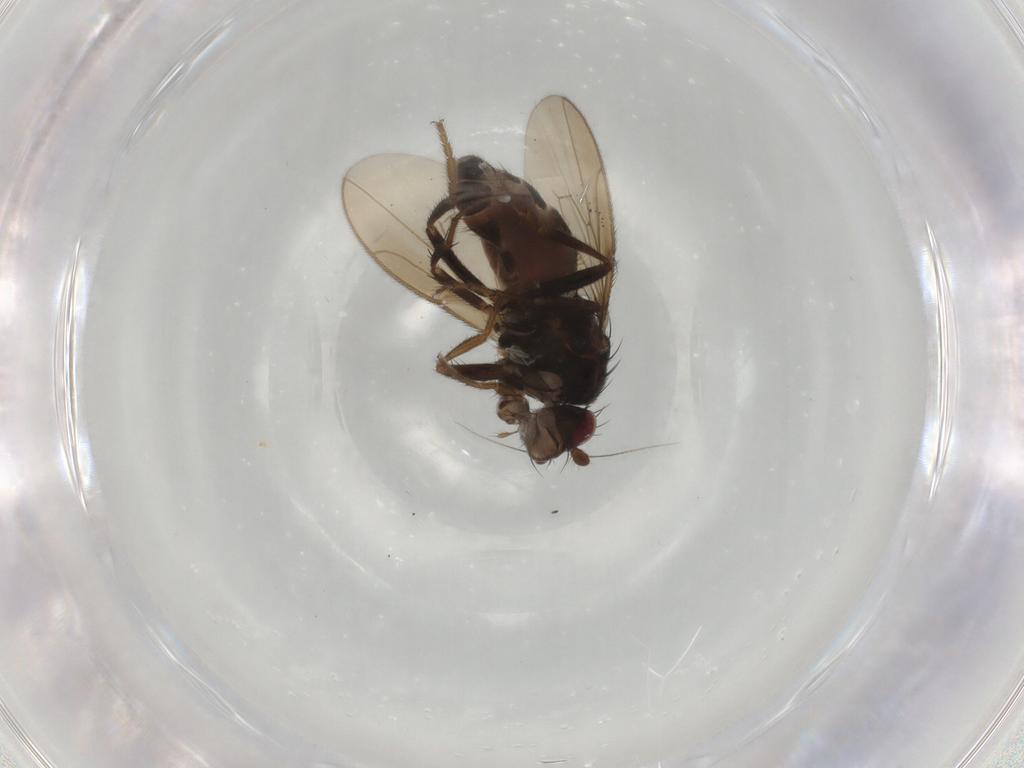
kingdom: Animalia
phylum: Arthropoda
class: Insecta
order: Diptera
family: Sphaeroceridae
